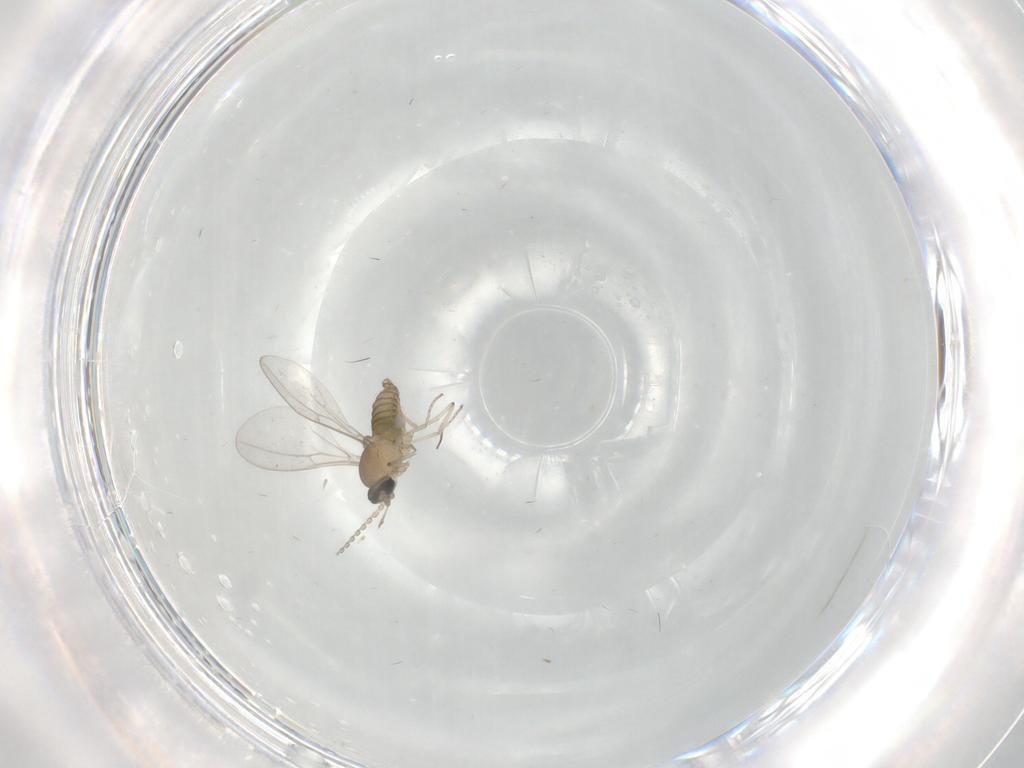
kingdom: Animalia
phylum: Arthropoda
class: Insecta
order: Diptera
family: Cecidomyiidae
